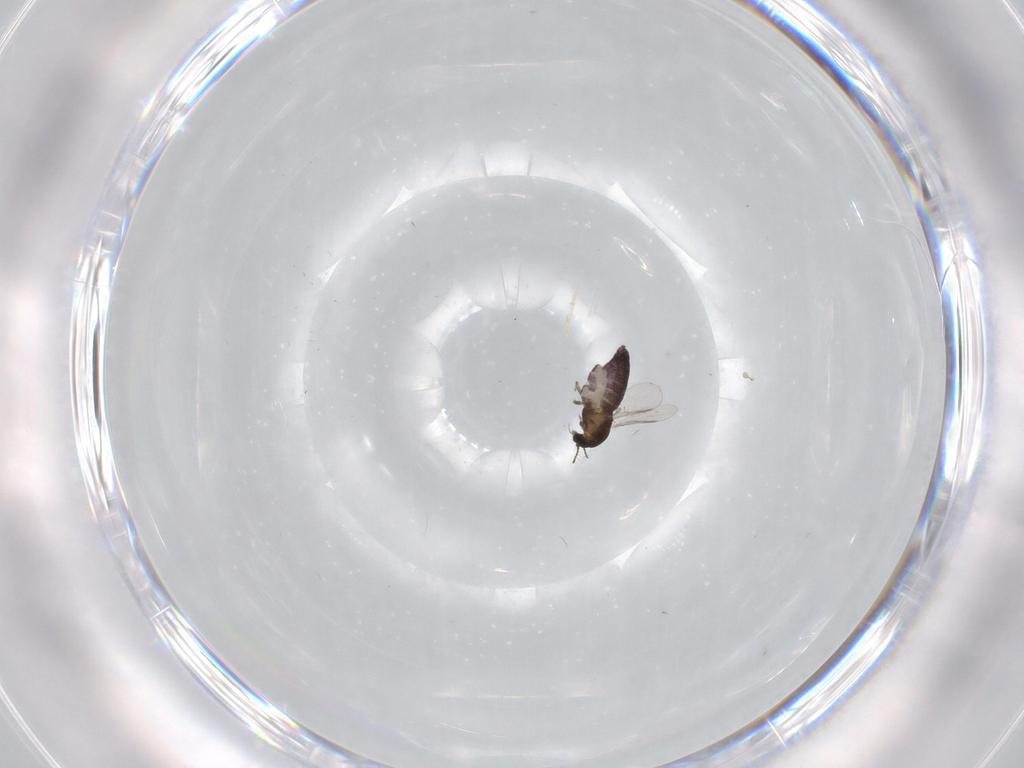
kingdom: Animalia
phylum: Arthropoda
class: Insecta
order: Diptera
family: Chironomidae
